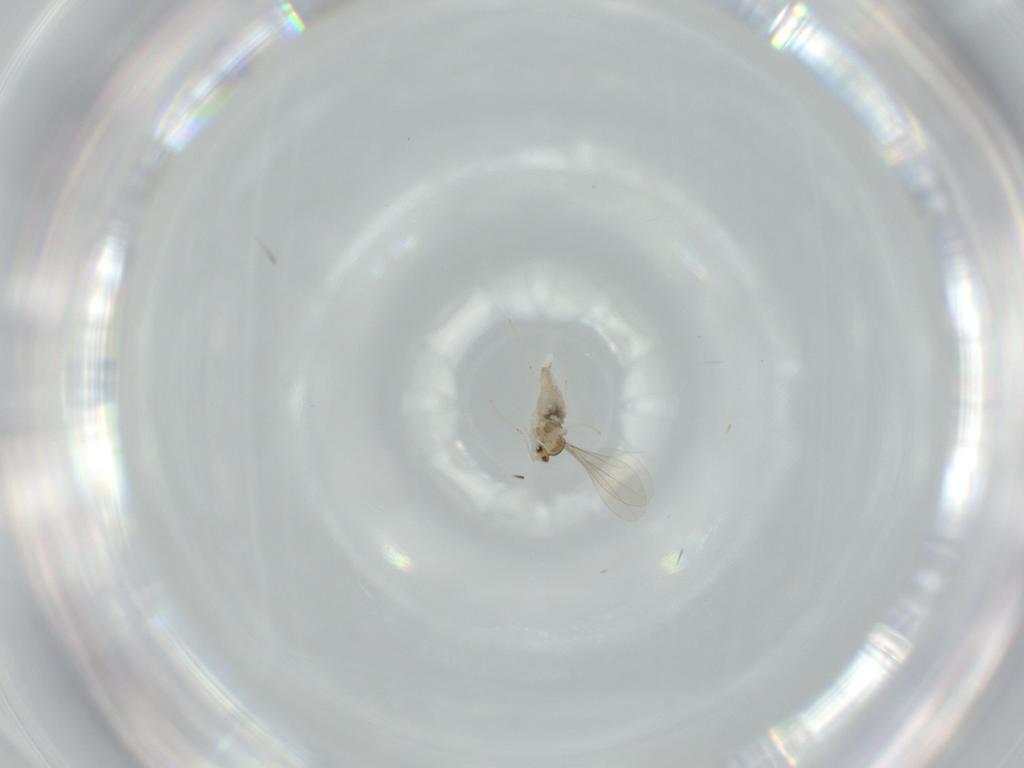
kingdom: Animalia
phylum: Arthropoda
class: Insecta
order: Diptera
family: Cecidomyiidae
